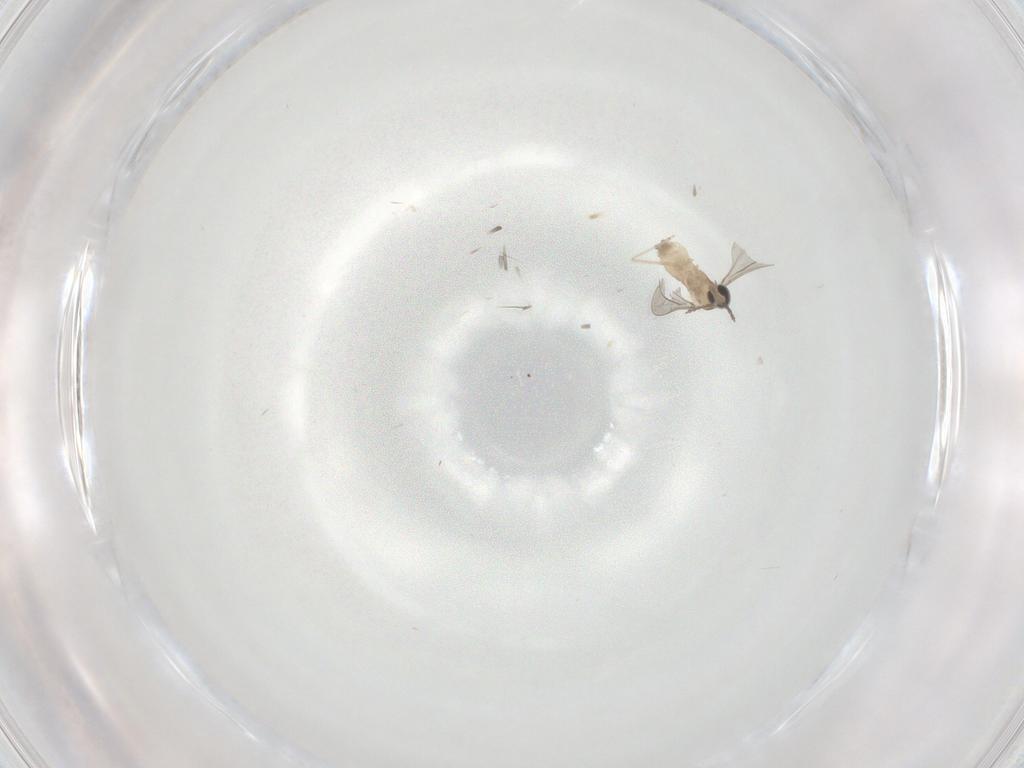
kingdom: Animalia
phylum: Arthropoda
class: Insecta
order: Diptera
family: Cecidomyiidae
